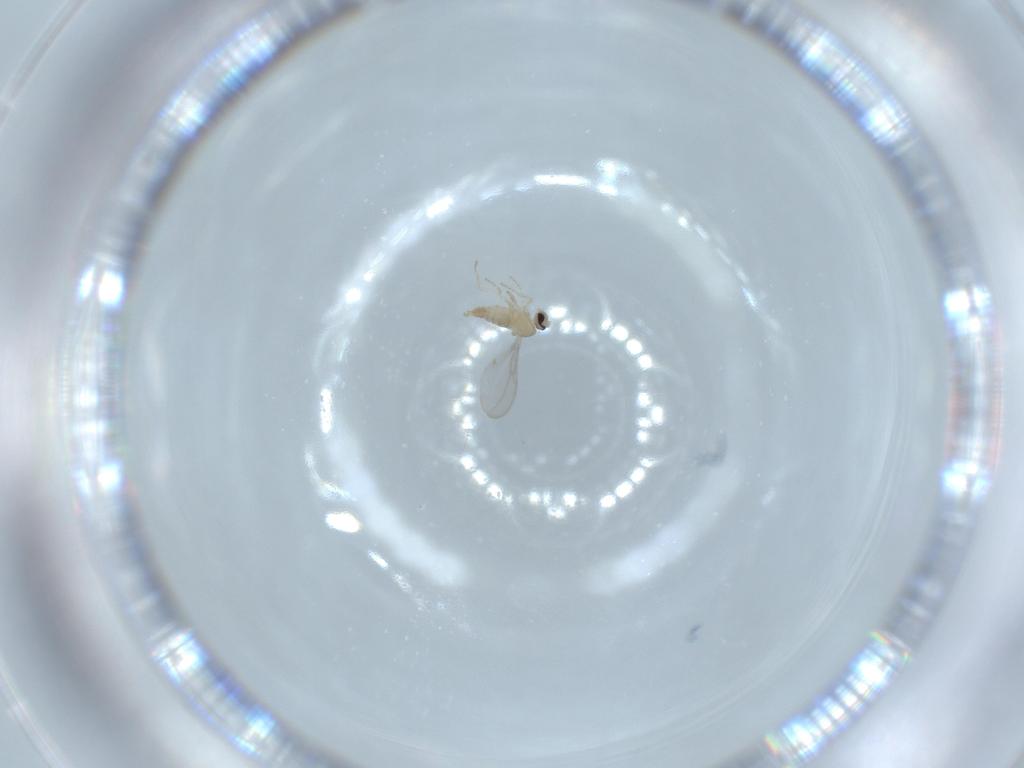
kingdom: Animalia
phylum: Arthropoda
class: Insecta
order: Diptera
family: Cecidomyiidae
